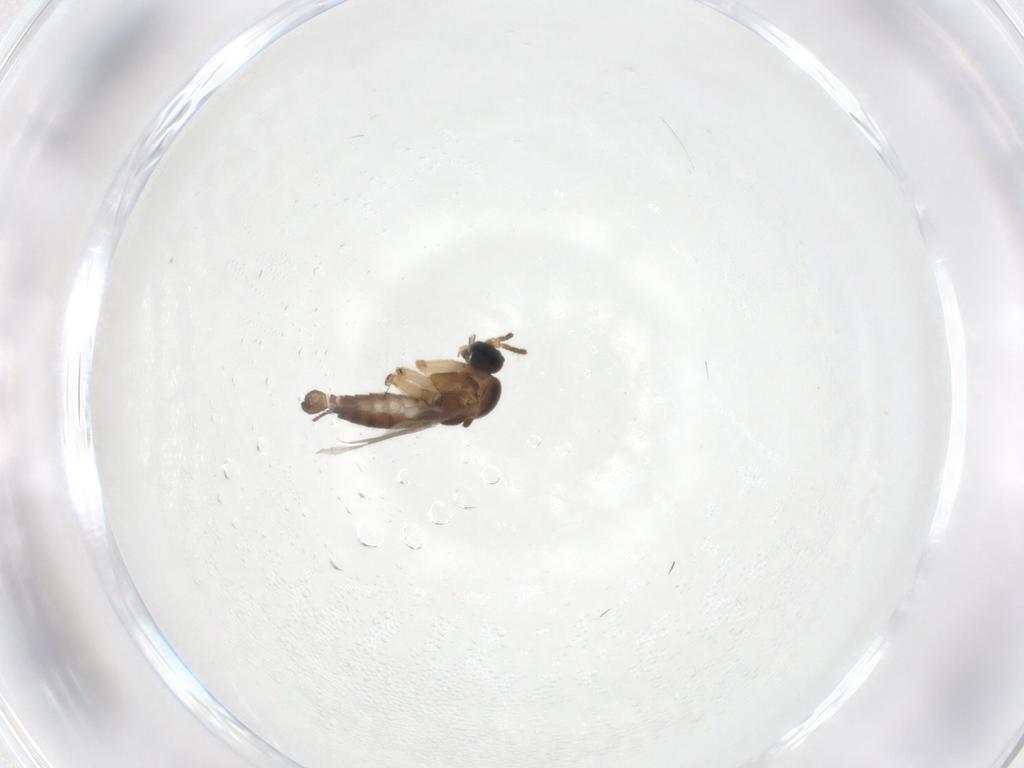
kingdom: Animalia
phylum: Arthropoda
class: Insecta
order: Diptera
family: Sciaridae
